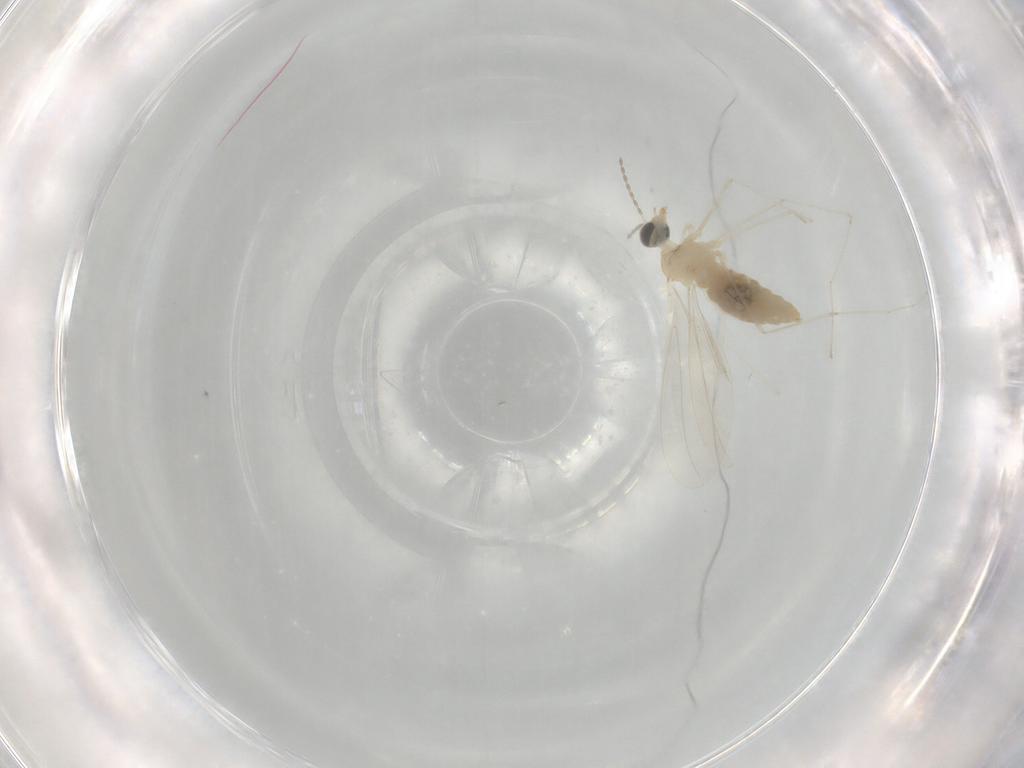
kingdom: Animalia
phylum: Arthropoda
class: Insecta
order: Diptera
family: Cecidomyiidae
